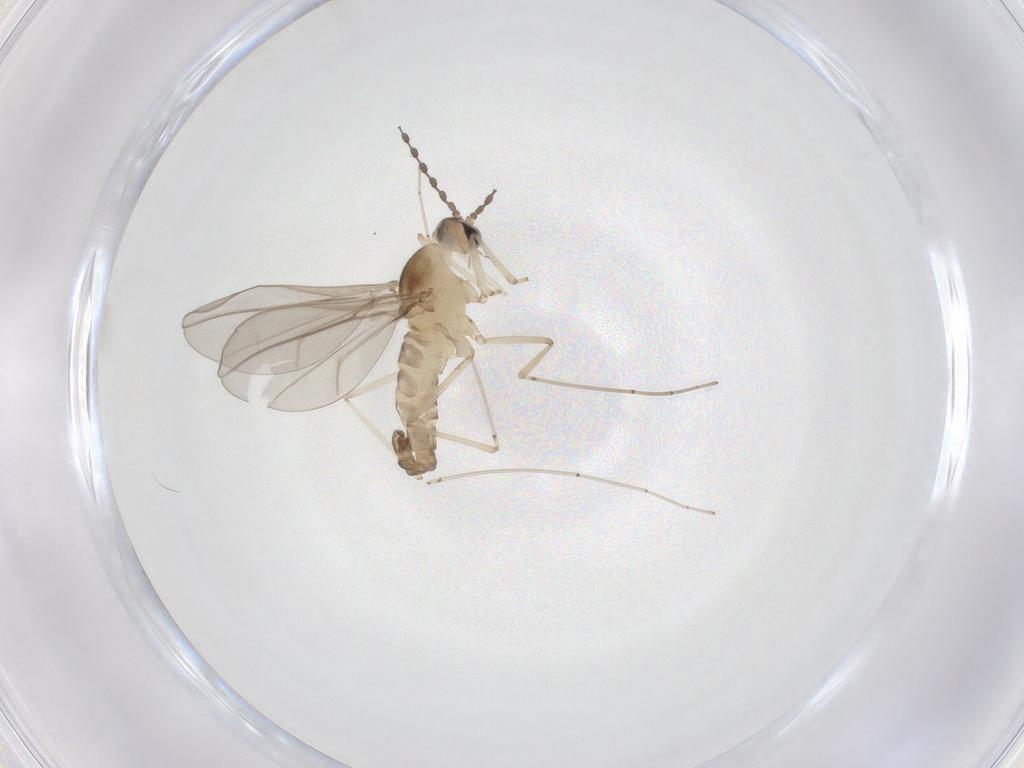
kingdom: Animalia
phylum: Arthropoda
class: Insecta
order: Diptera
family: Cecidomyiidae
